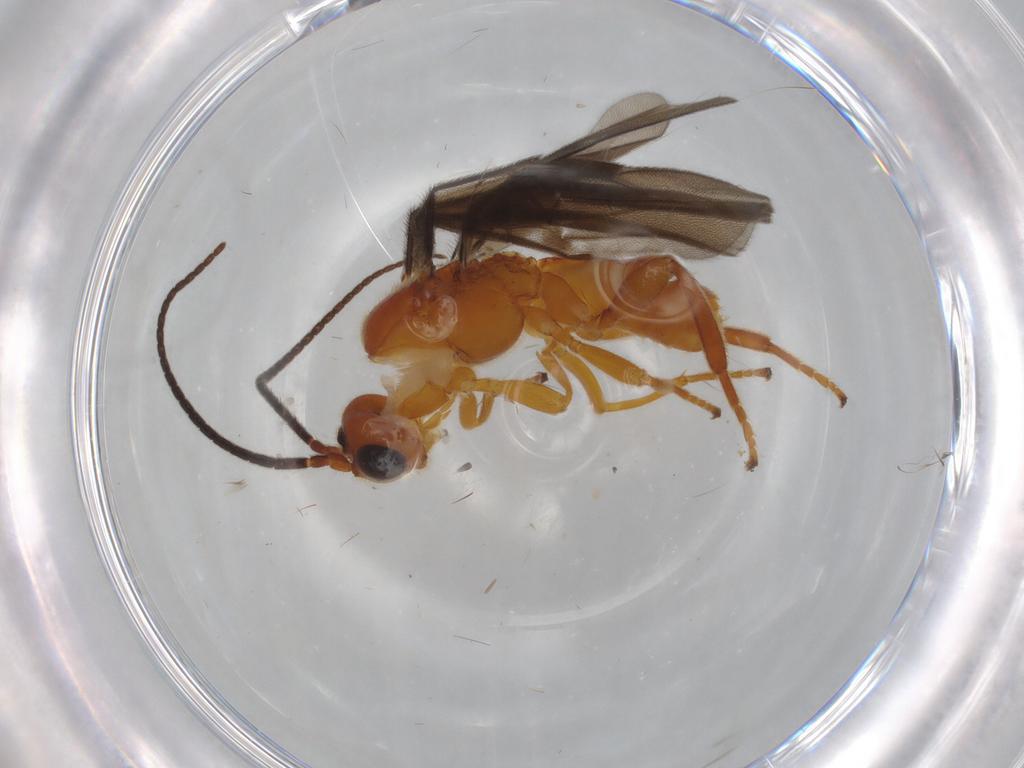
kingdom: Animalia
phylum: Arthropoda
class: Insecta
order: Hymenoptera
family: Braconidae
